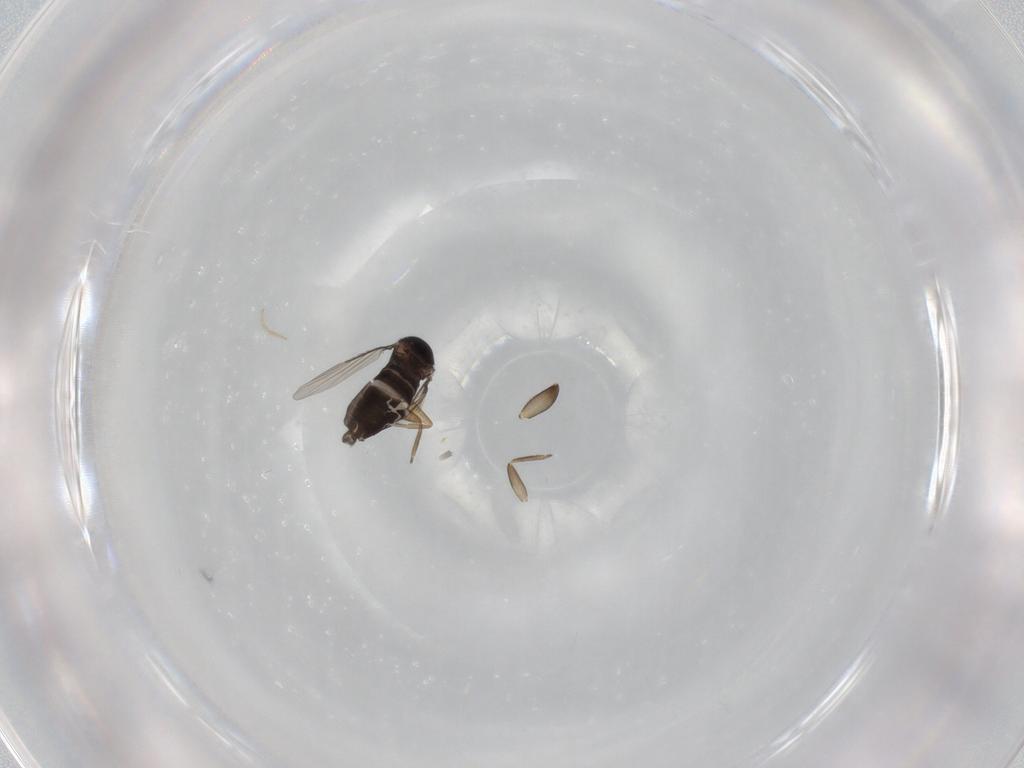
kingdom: Animalia
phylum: Arthropoda
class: Insecta
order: Diptera
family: Phoridae
